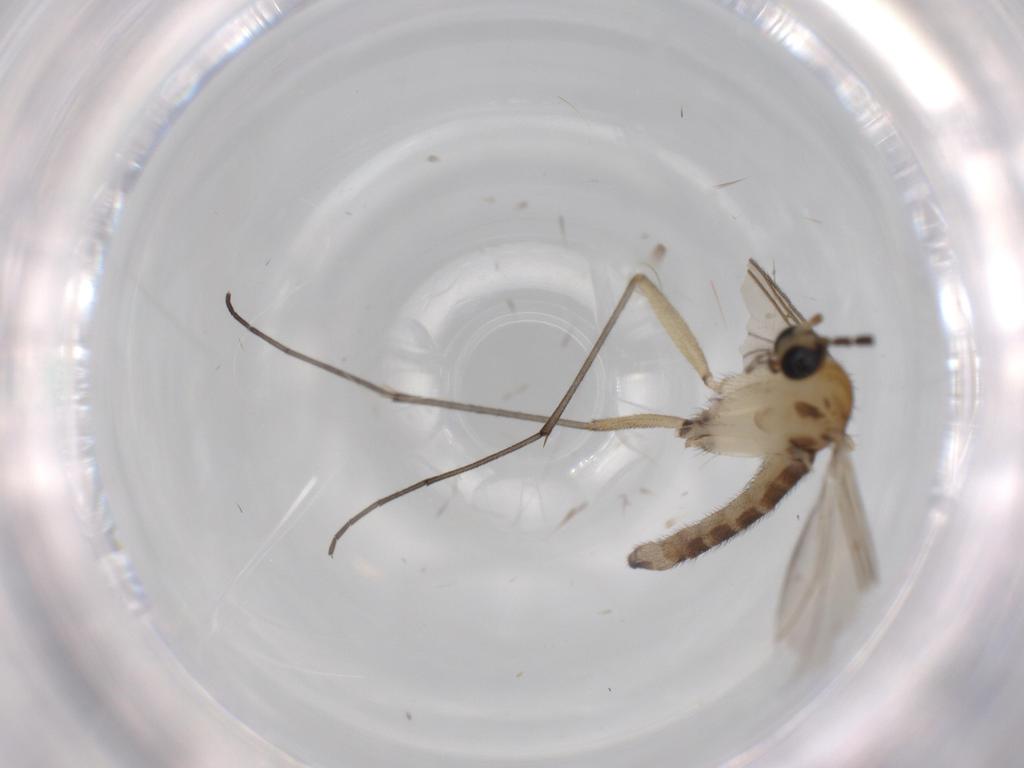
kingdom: Animalia
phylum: Arthropoda
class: Insecta
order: Diptera
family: Sciaridae
